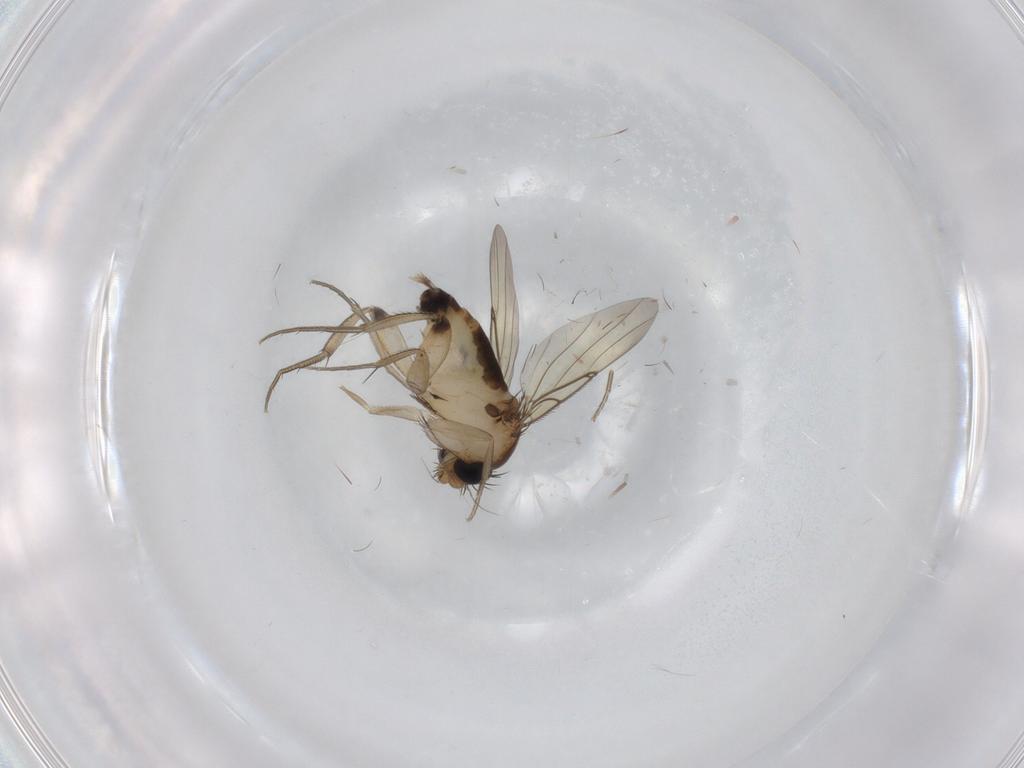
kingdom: Animalia
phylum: Arthropoda
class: Insecta
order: Diptera
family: Phoridae
